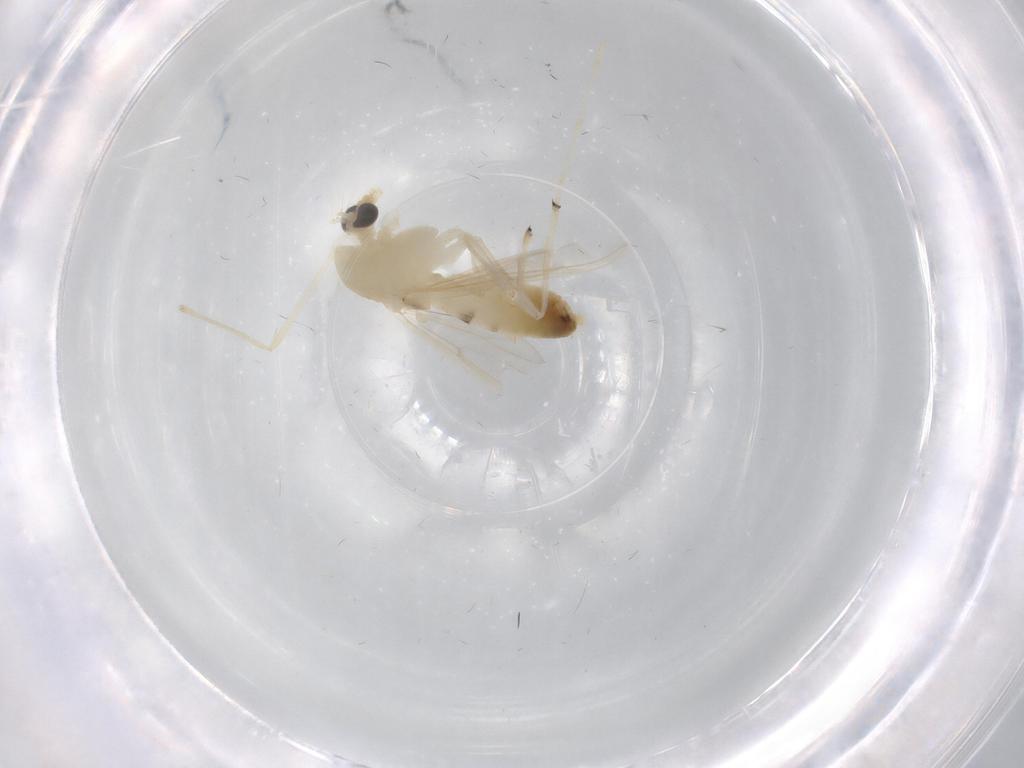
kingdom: Animalia
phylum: Arthropoda
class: Insecta
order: Diptera
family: Chironomidae
